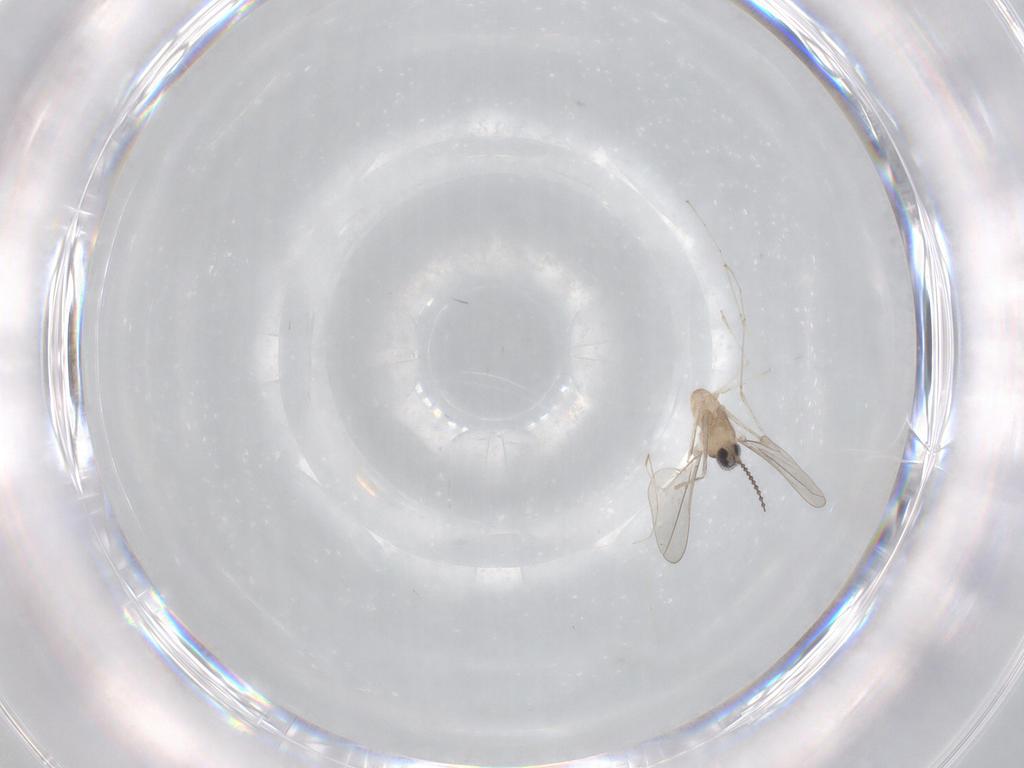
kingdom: Animalia
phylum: Arthropoda
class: Insecta
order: Diptera
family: Cecidomyiidae
